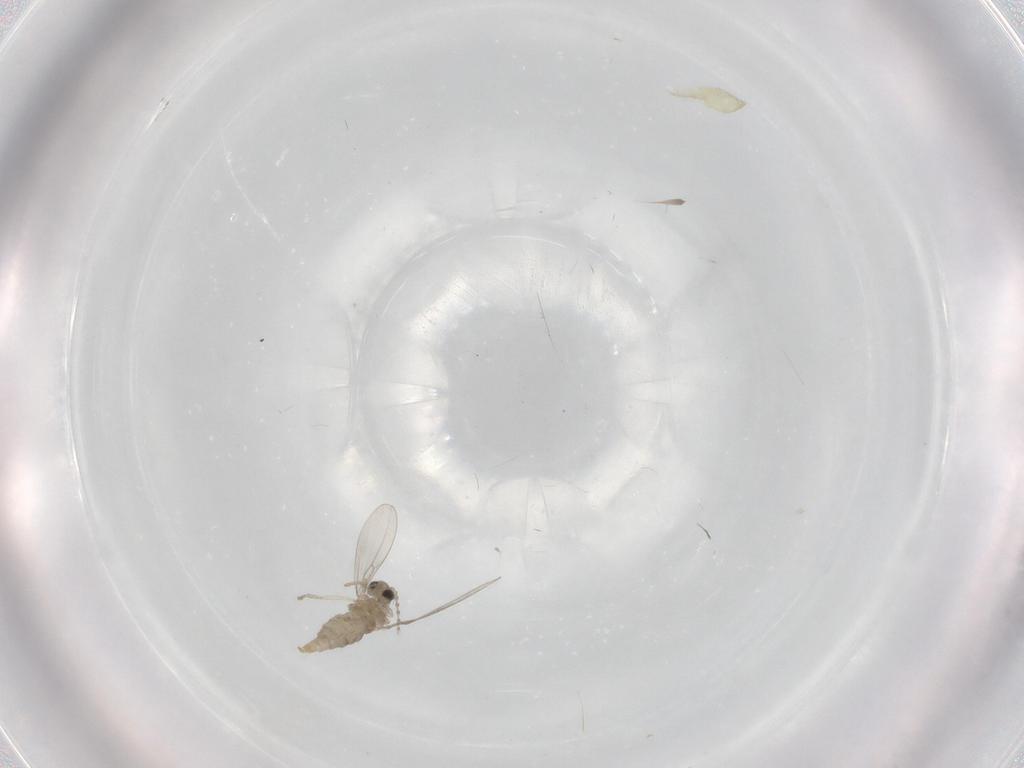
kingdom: Animalia
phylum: Arthropoda
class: Insecta
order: Diptera
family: Cecidomyiidae
